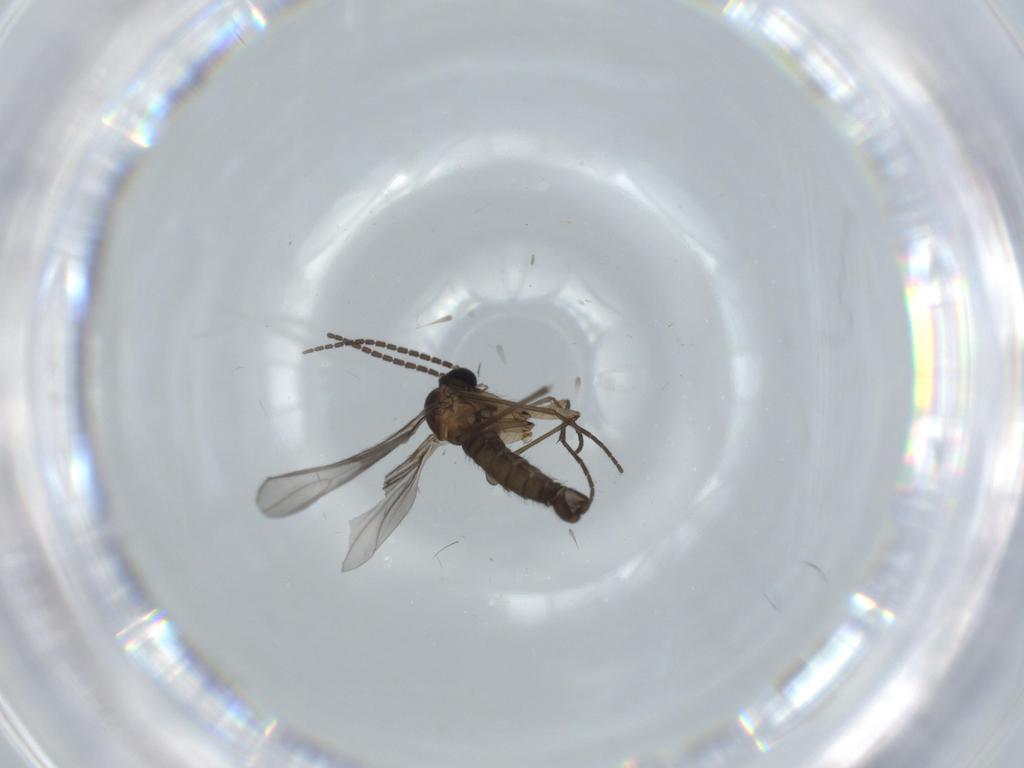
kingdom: Animalia
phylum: Arthropoda
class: Insecta
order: Diptera
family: Sciaridae
